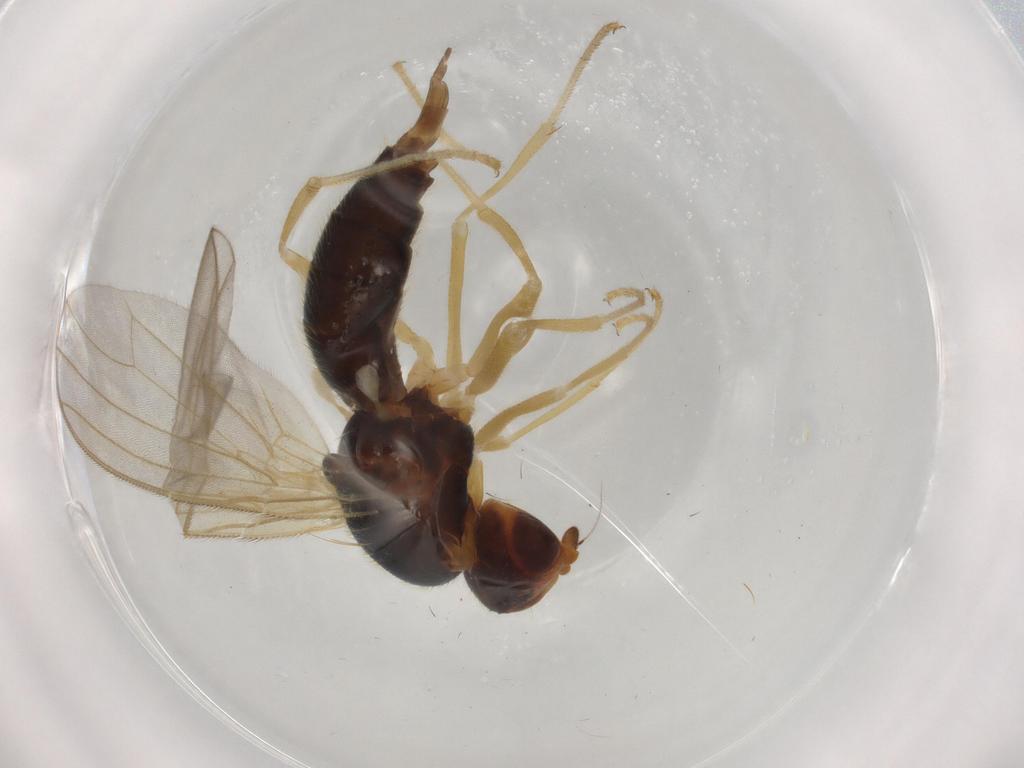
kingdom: Animalia
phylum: Arthropoda
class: Insecta
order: Diptera
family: Psilidae
